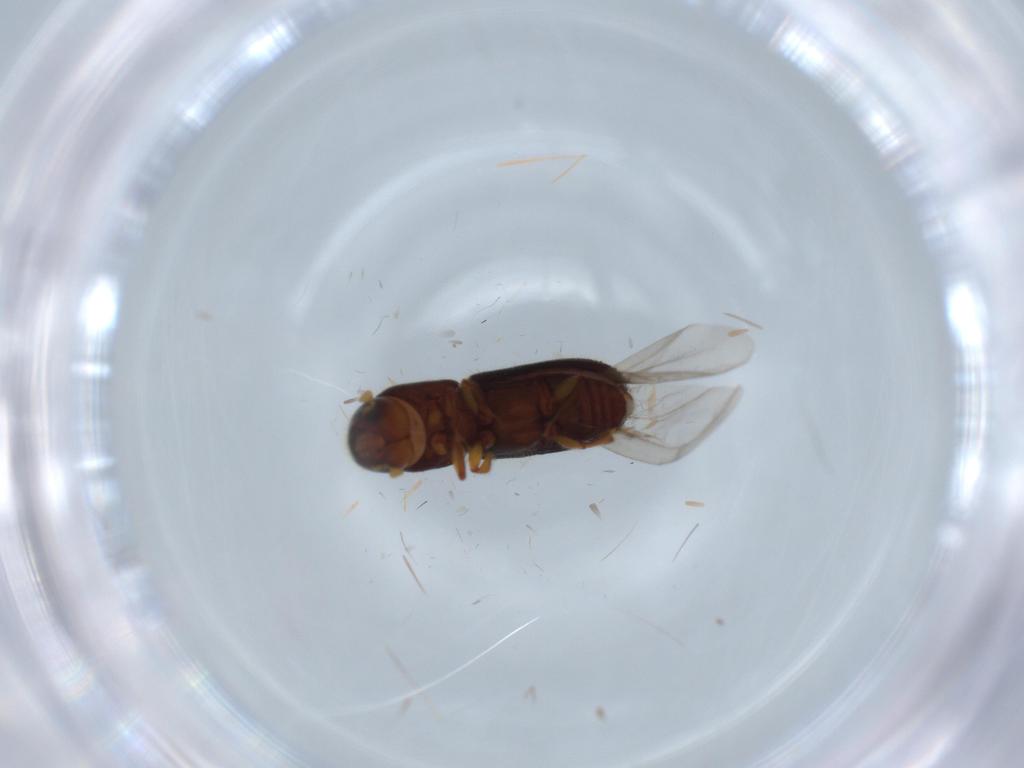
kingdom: Animalia
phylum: Arthropoda
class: Insecta
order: Coleoptera
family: Curculionidae
